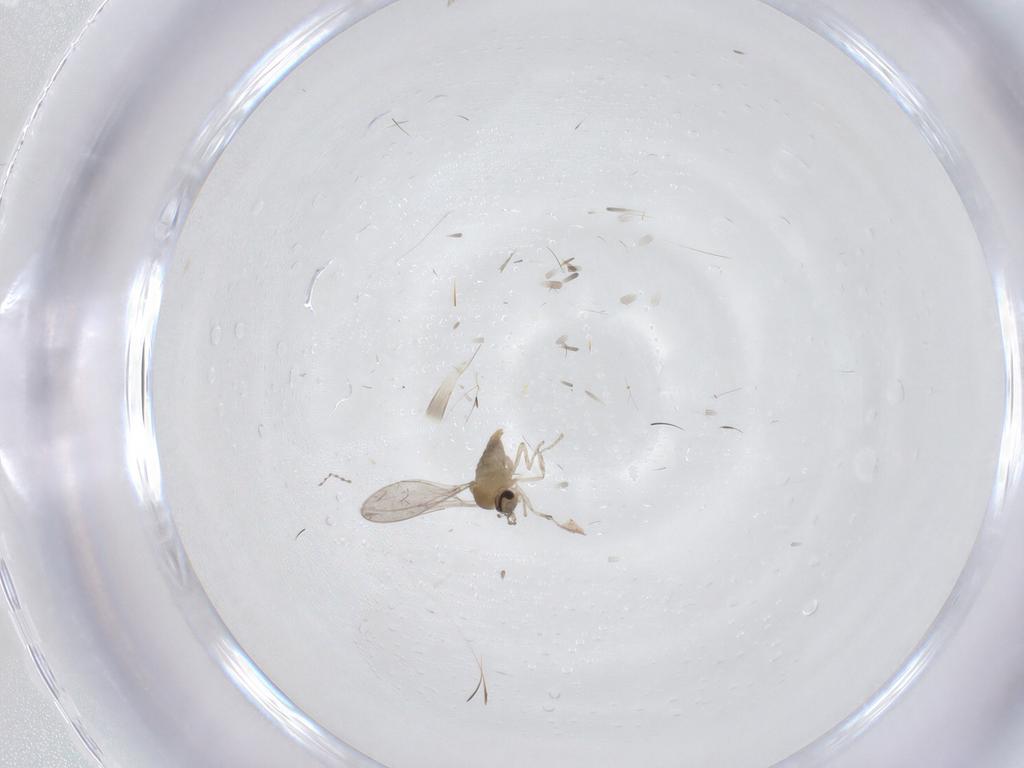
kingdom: Animalia
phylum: Arthropoda
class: Insecta
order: Diptera
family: Cecidomyiidae
